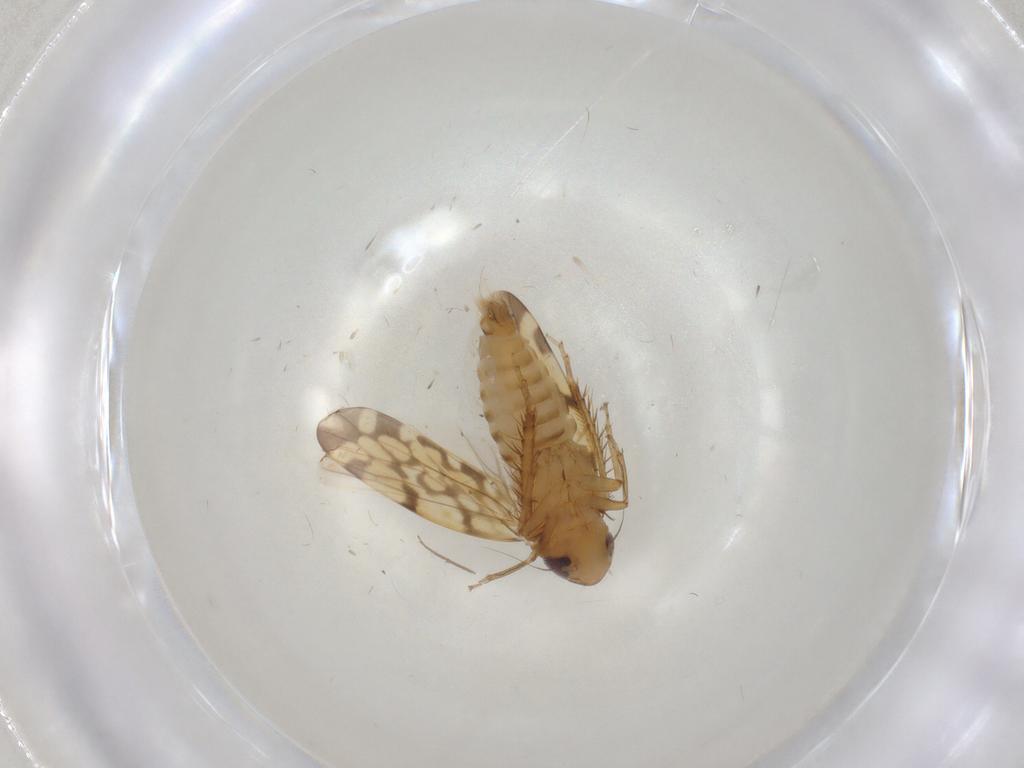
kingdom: Animalia
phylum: Arthropoda
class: Insecta
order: Hemiptera
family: Cicadellidae
